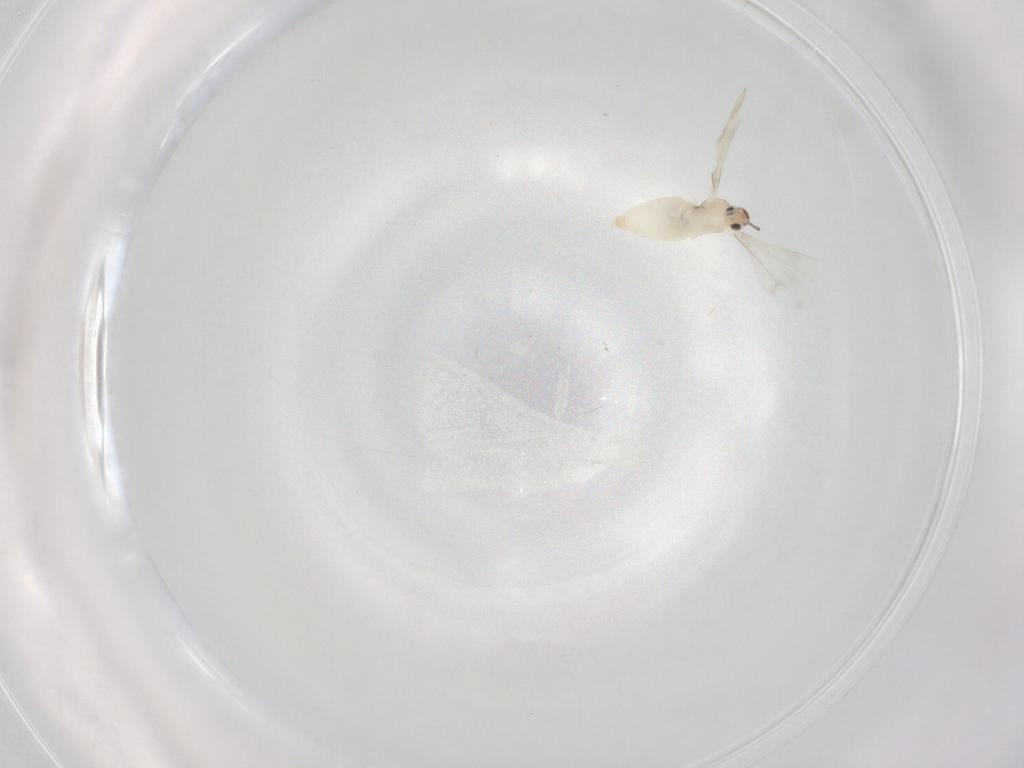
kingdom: Animalia
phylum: Arthropoda
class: Insecta
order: Diptera
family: Cecidomyiidae
